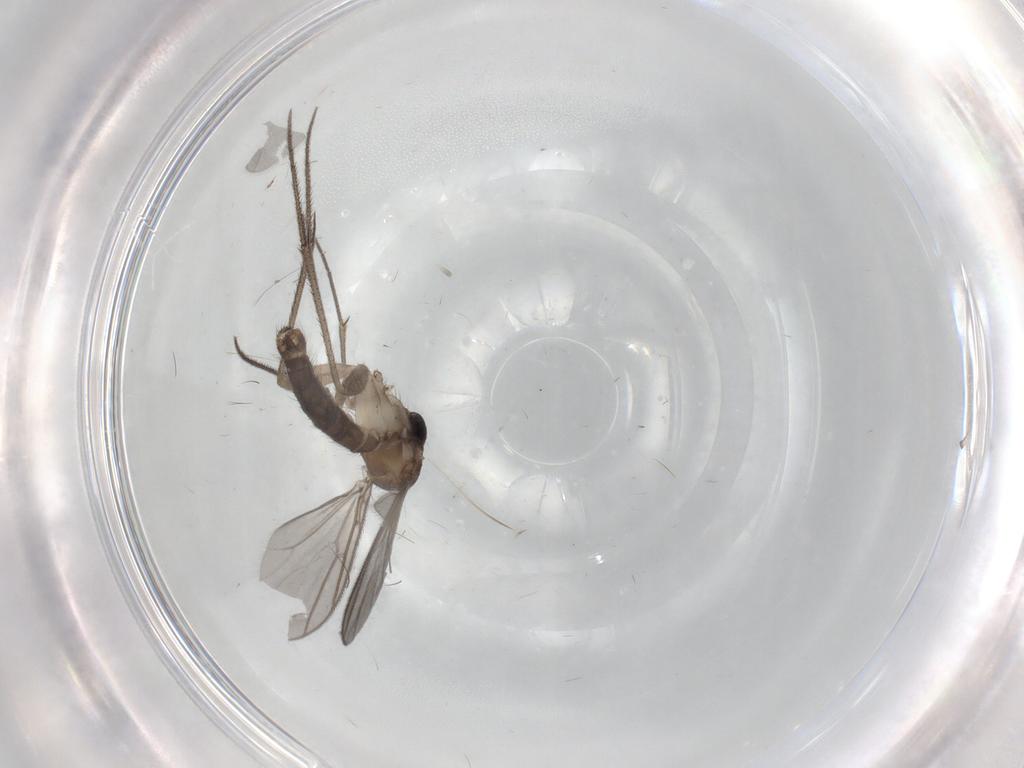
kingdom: Animalia
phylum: Arthropoda
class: Insecta
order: Diptera
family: Mycetophilidae
